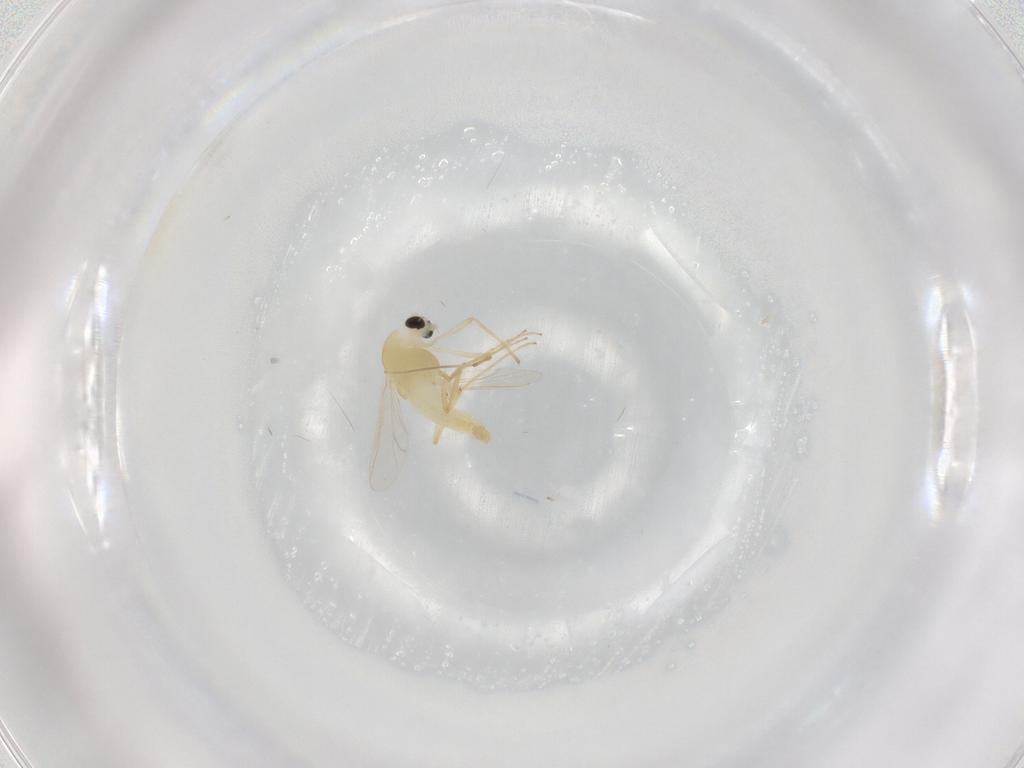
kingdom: Animalia
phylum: Arthropoda
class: Insecta
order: Diptera
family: Chironomidae
